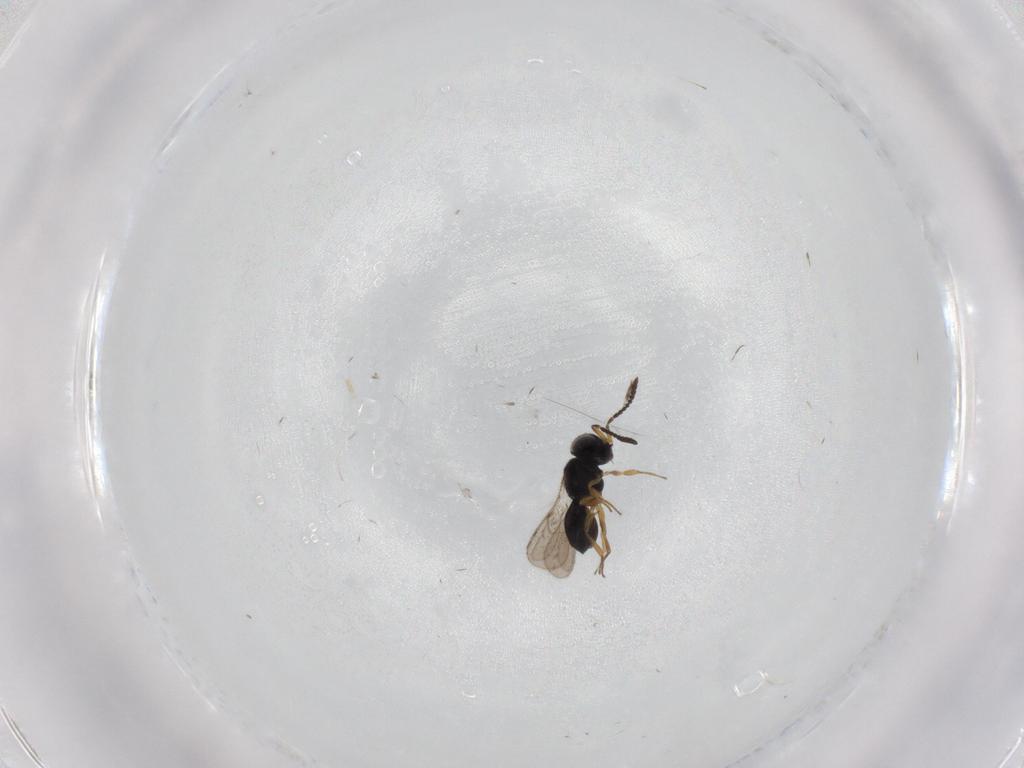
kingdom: Animalia
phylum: Arthropoda
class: Insecta
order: Hymenoptera
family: Scelionidae
